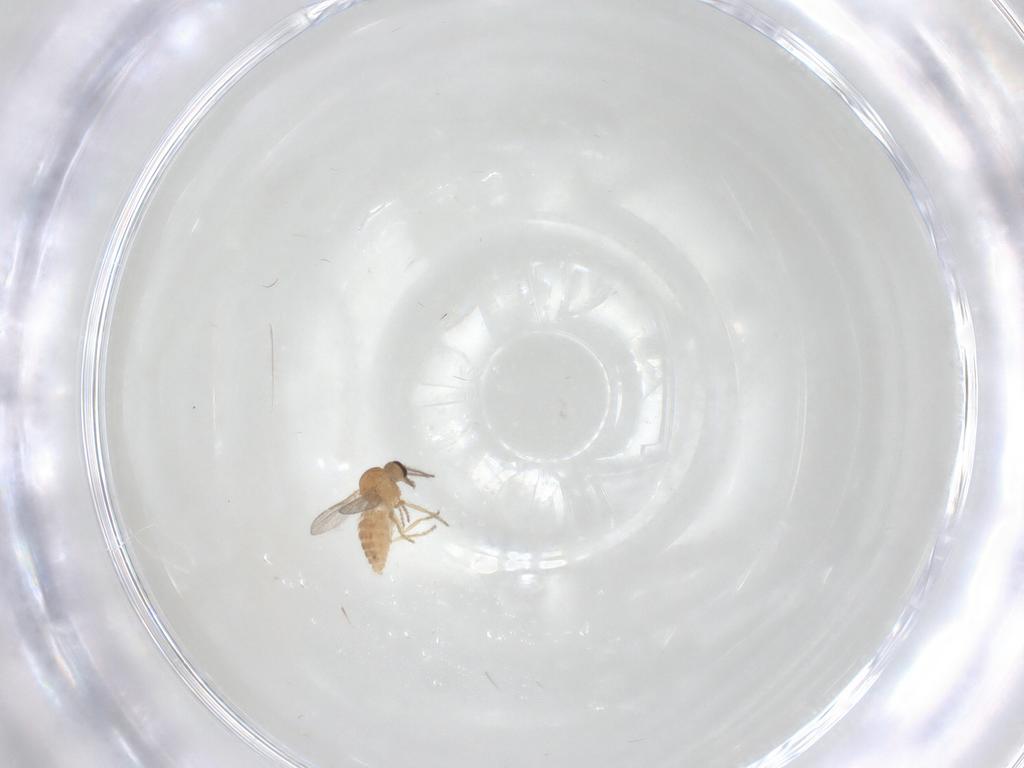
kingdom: Animalia
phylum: Arthropoda
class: Insecta
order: Diptera
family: Ceratopogonidae
